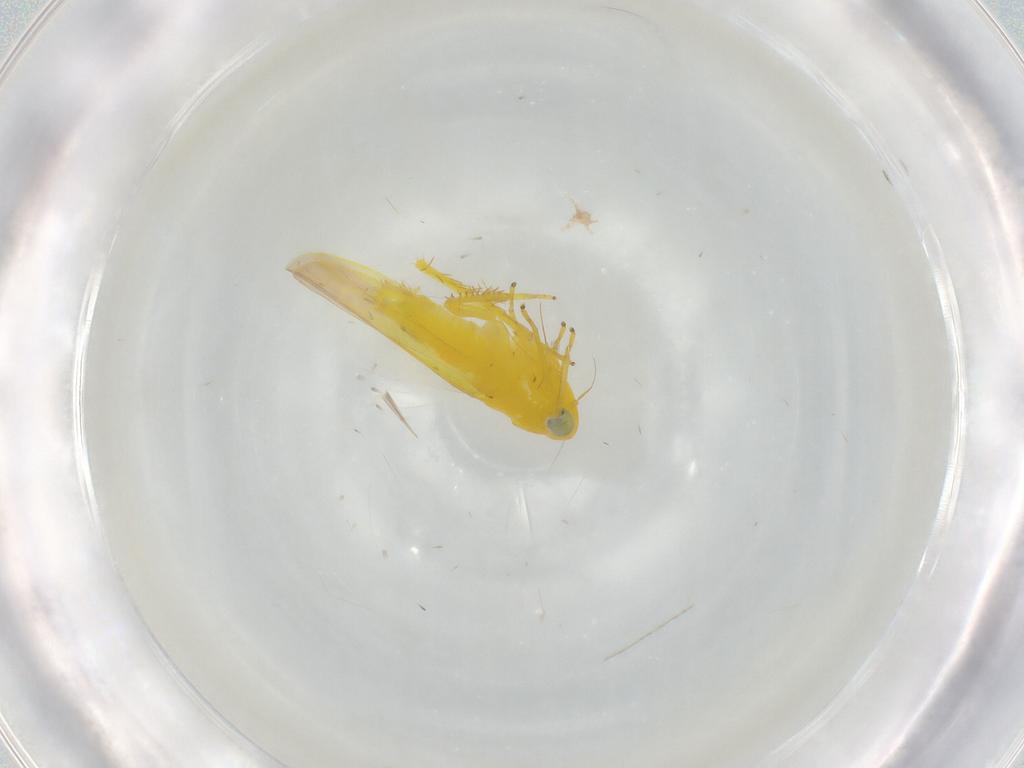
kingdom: Animalia
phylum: Arthropoda
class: Insecta
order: Hemiptera
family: Cicadellidae
